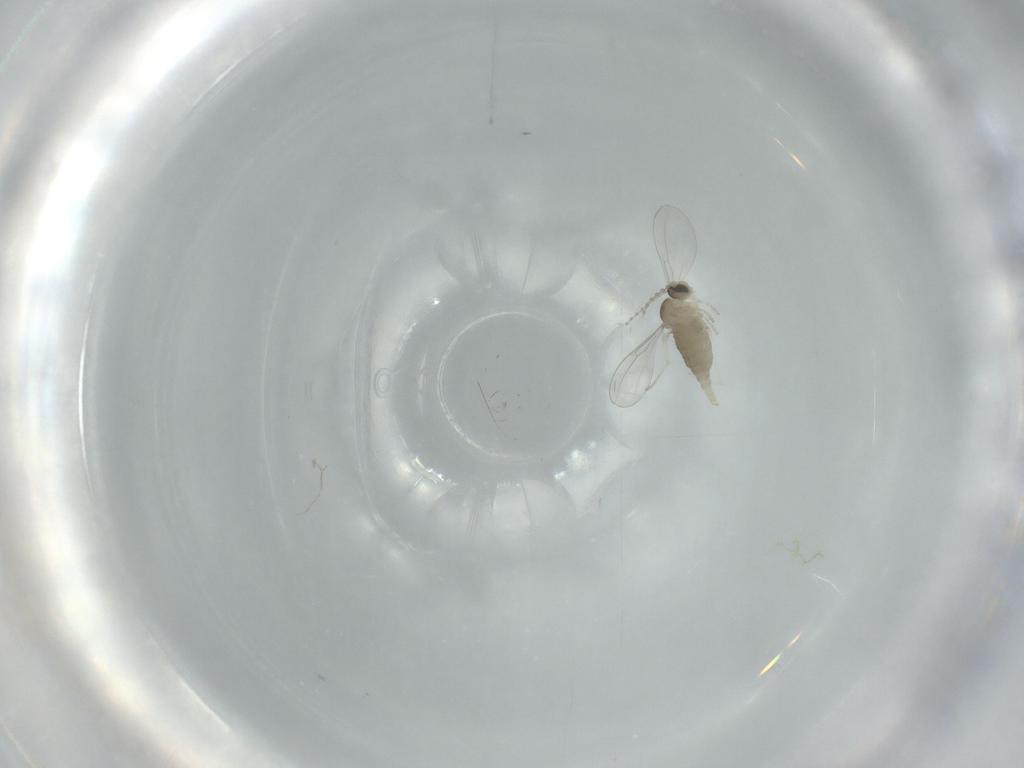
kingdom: Animalia
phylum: Arthropoda
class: Insecta
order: Diptera
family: Cecidomyiidae
